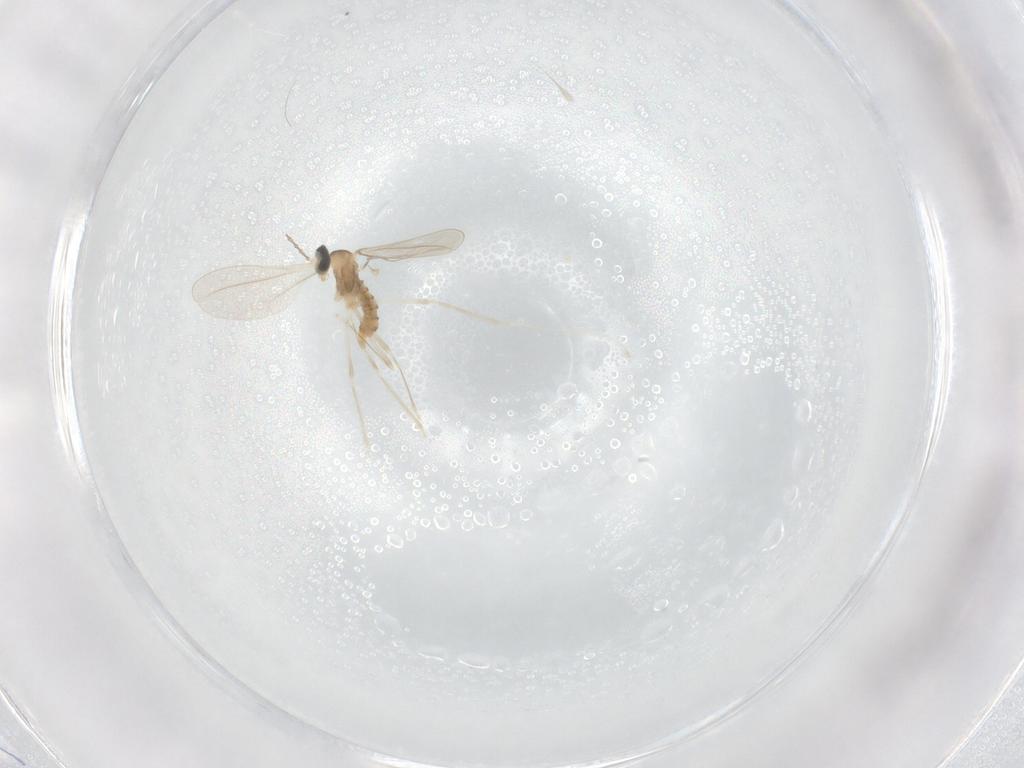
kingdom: Animalia
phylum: Arthropoda
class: Insecta
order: Diptera
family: Cecidomyiidae
